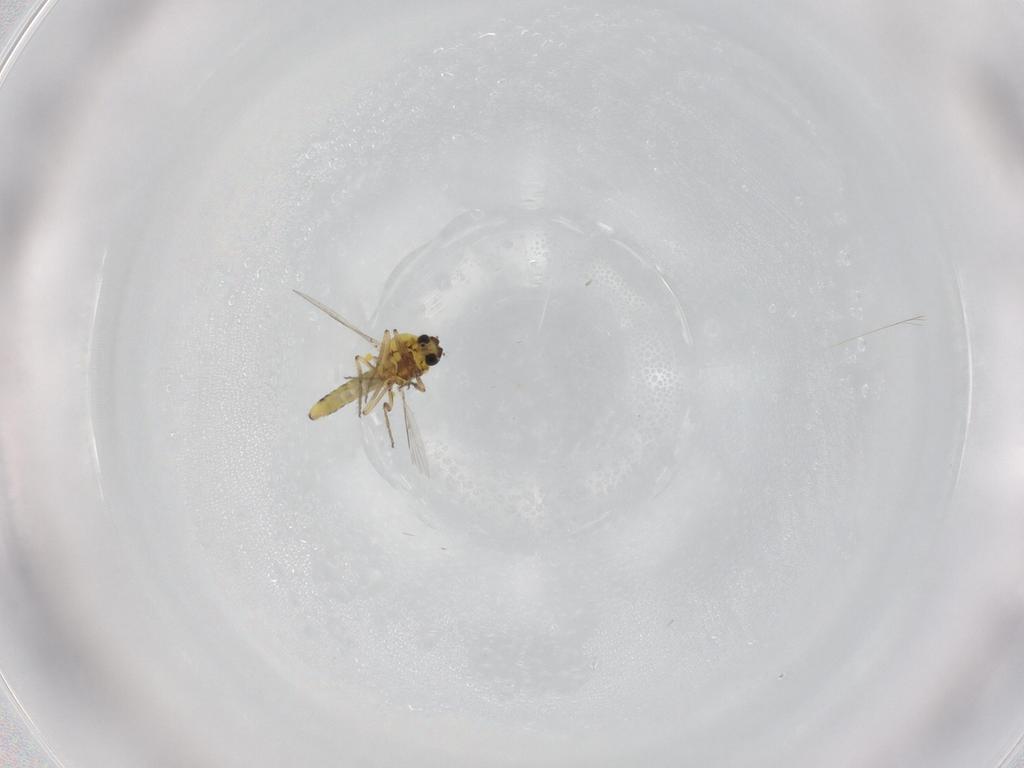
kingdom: Animalia
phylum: Arthropoda
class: Insecta
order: Diptera
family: Ceratopogonidae
